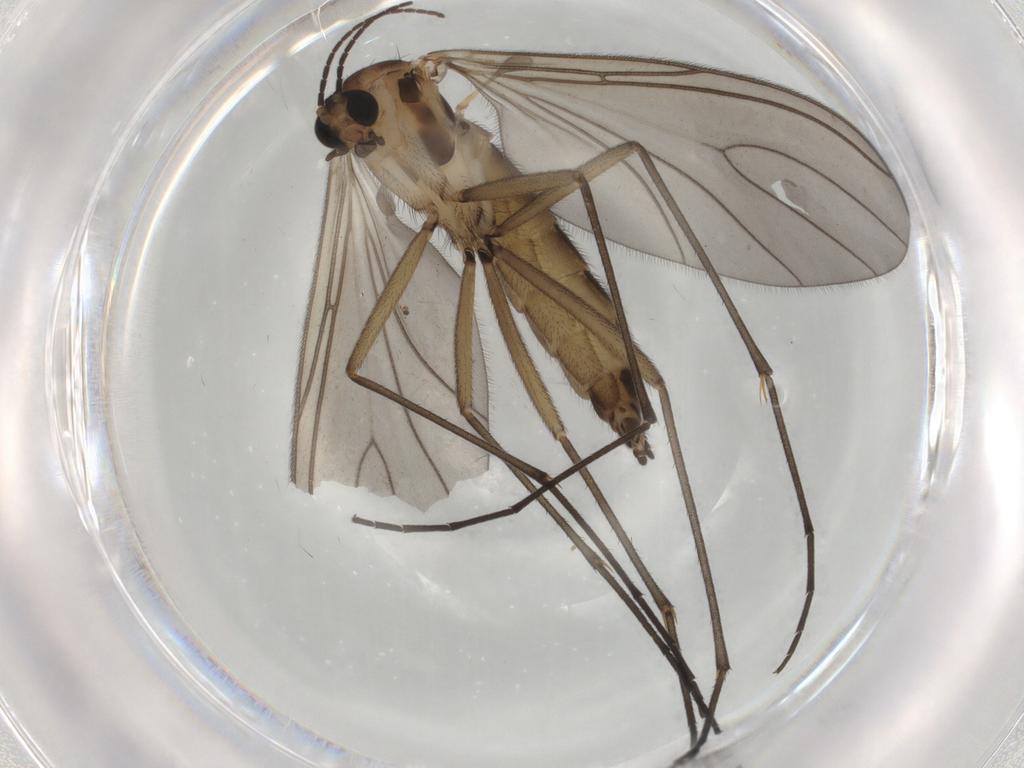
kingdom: Animalia
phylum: Arthropoda
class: Insecta
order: Diptera
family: Sciaridae
